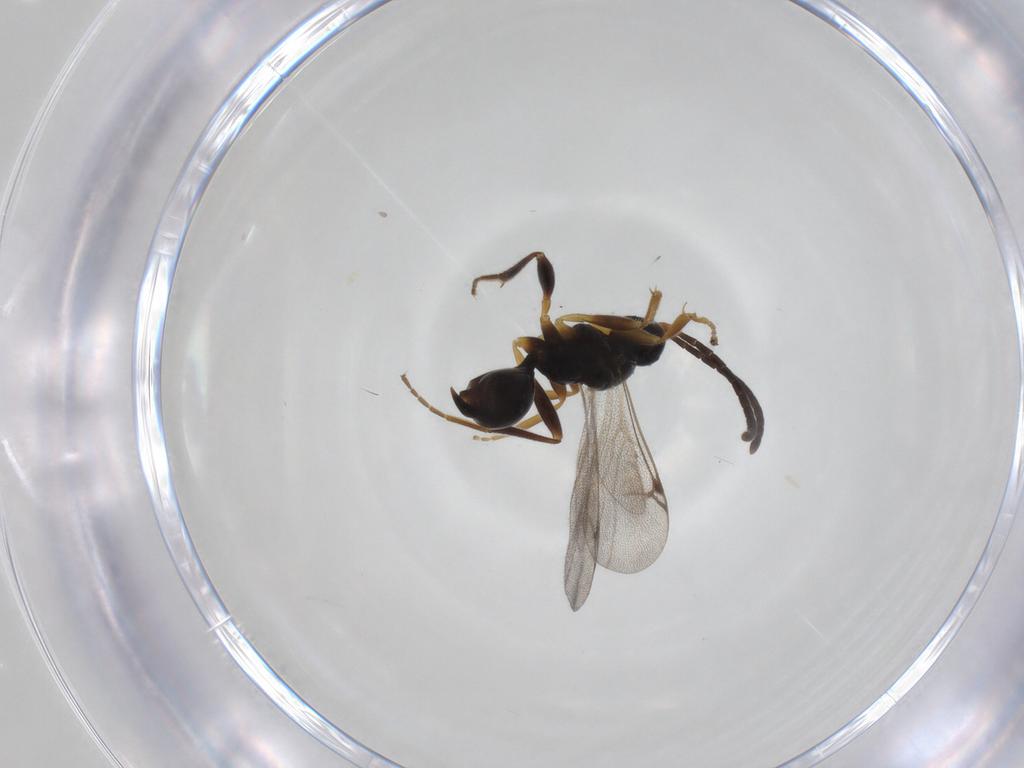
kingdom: Animalia
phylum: Arthropoda
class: Insecta
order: Hymenoptera
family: Proctotrupidae
